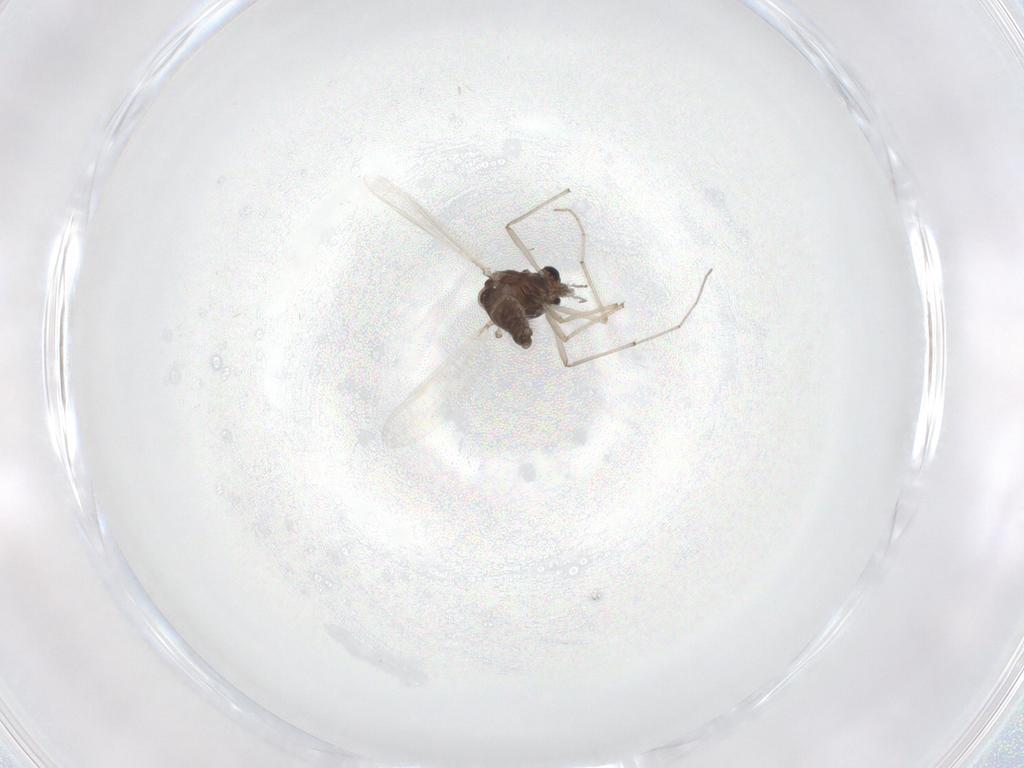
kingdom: Animalia
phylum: Arthropoda
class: Insecta
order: Diptera
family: Chironomidae
